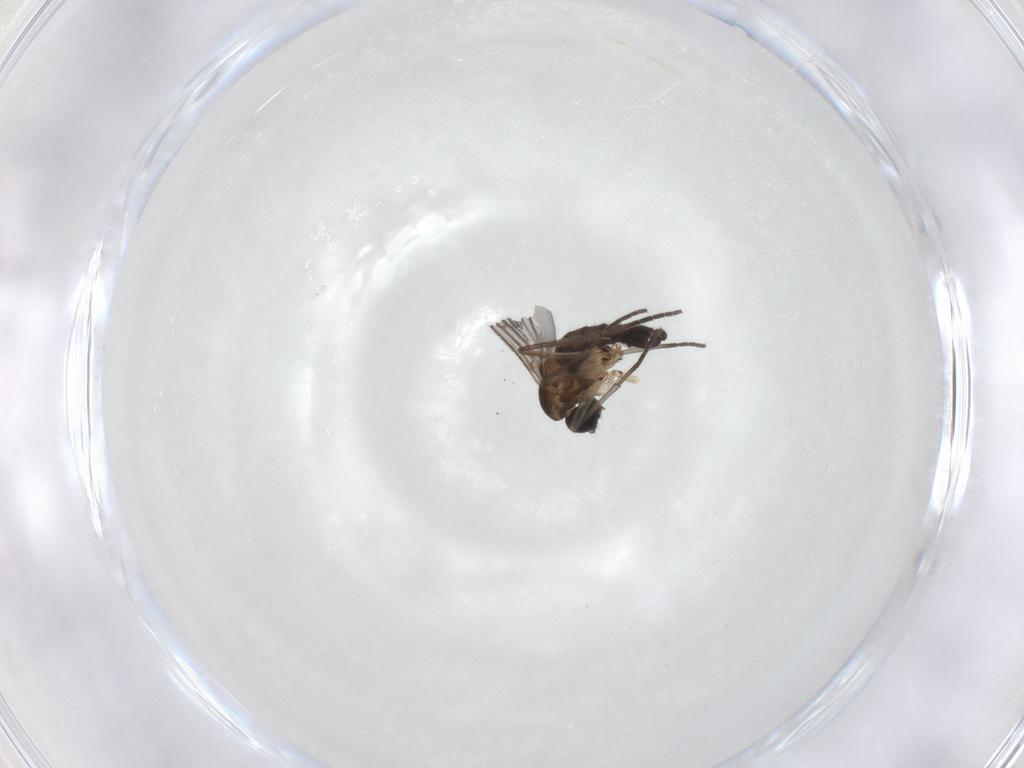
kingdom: Animalia
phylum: Arthropoda
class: Insecta
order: Diptera
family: Sciaridae
